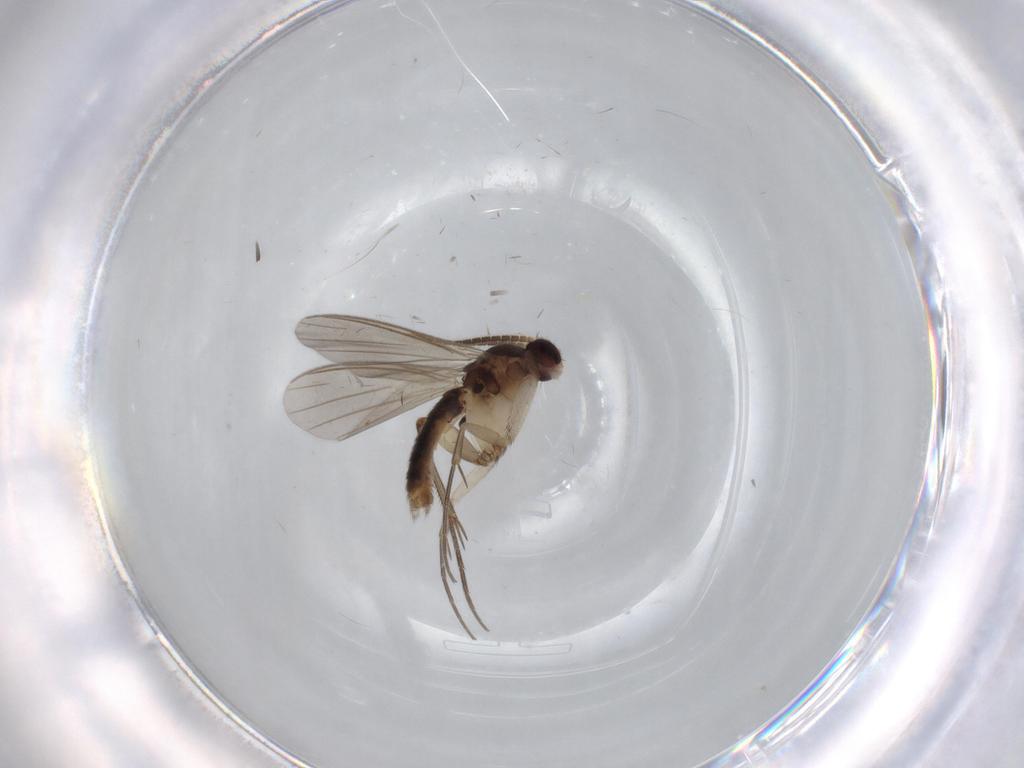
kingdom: Animalia
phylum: Arthropoda
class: Insecta
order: Diptera
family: Mycetophilidae
